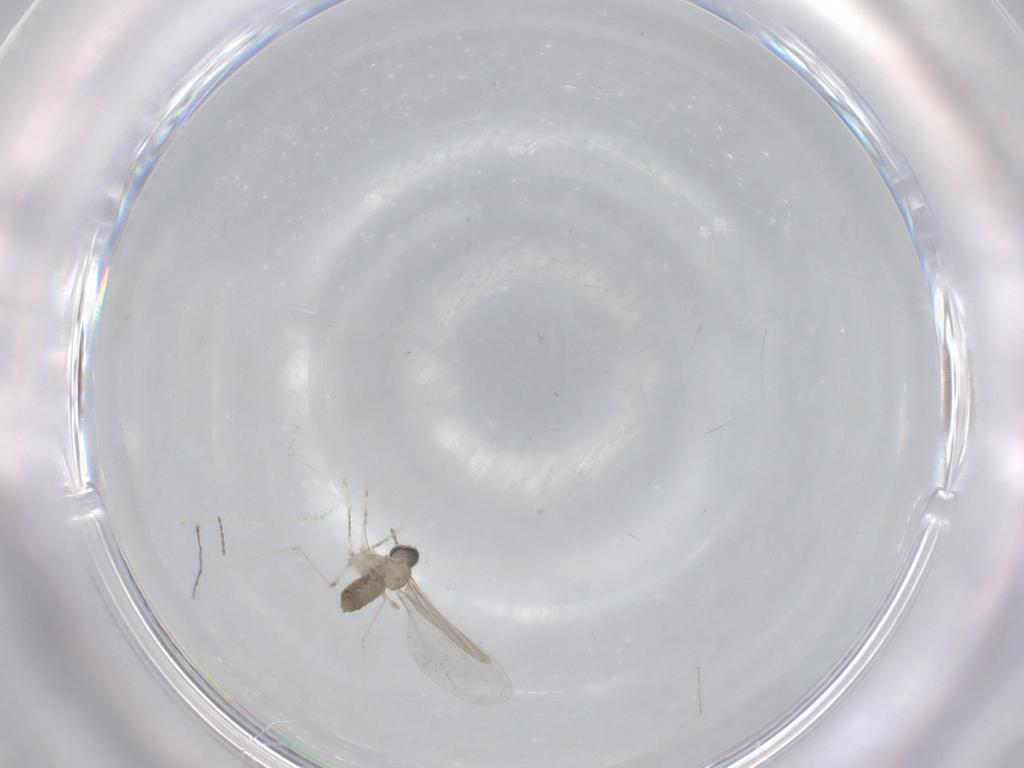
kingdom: Animalia
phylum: Arthropoda
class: Insecta
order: Diptera
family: Cecidomyiidae
